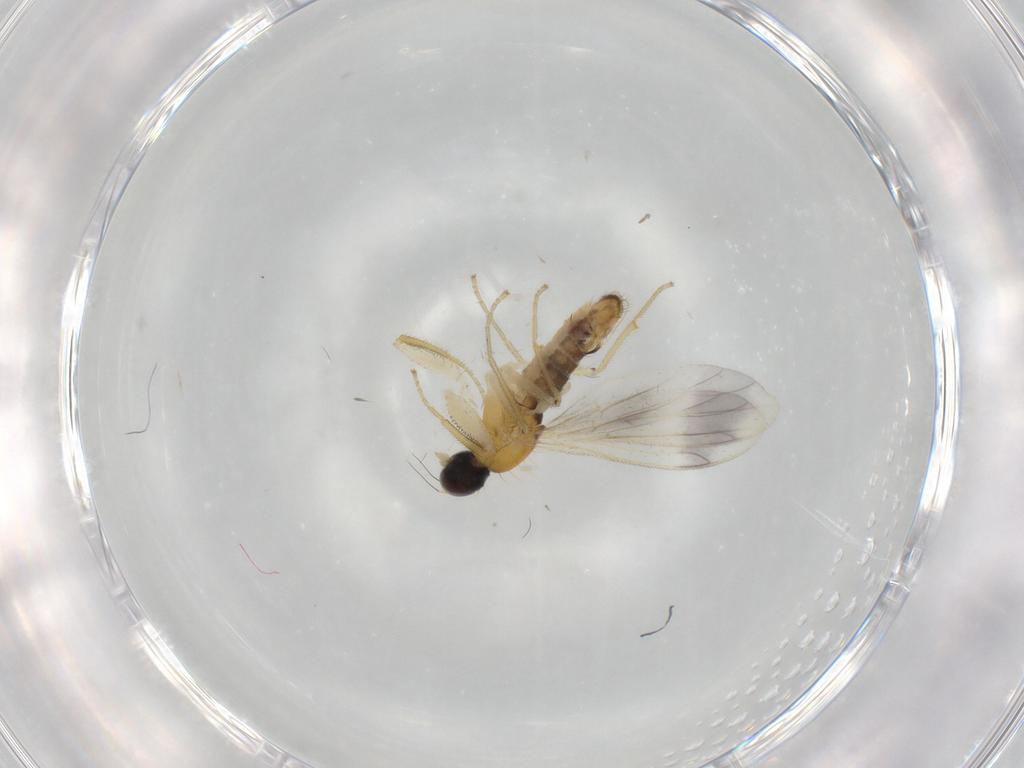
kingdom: Animalia
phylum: Arthropoda
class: Insecta
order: Diptera
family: Empididae
